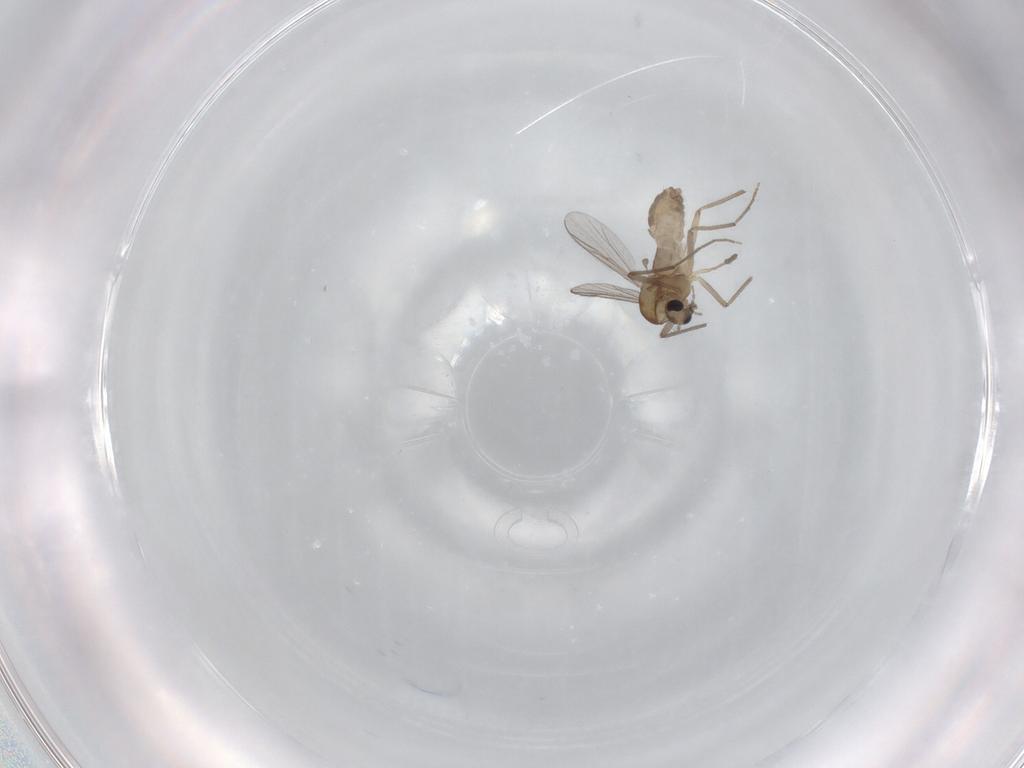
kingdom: Animalia
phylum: Arthropoda
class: Insecta
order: Diptera
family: Chironomidae
